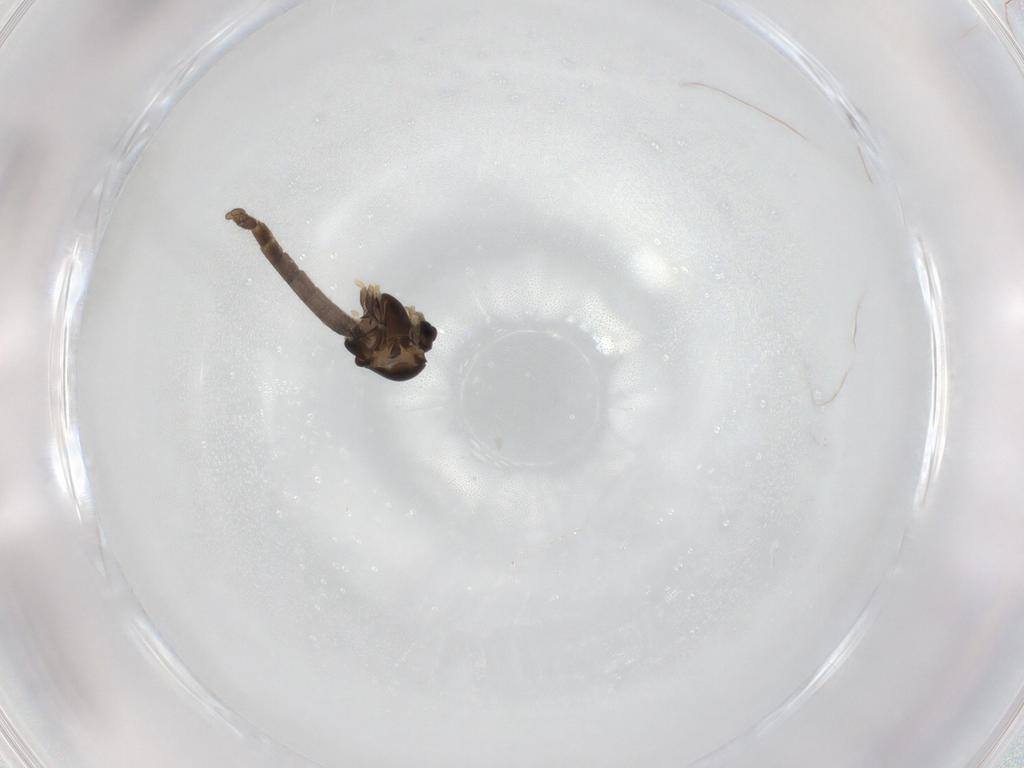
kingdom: Animalia
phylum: Arthropoda
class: Insecta
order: Diptera
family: Chironomidae
